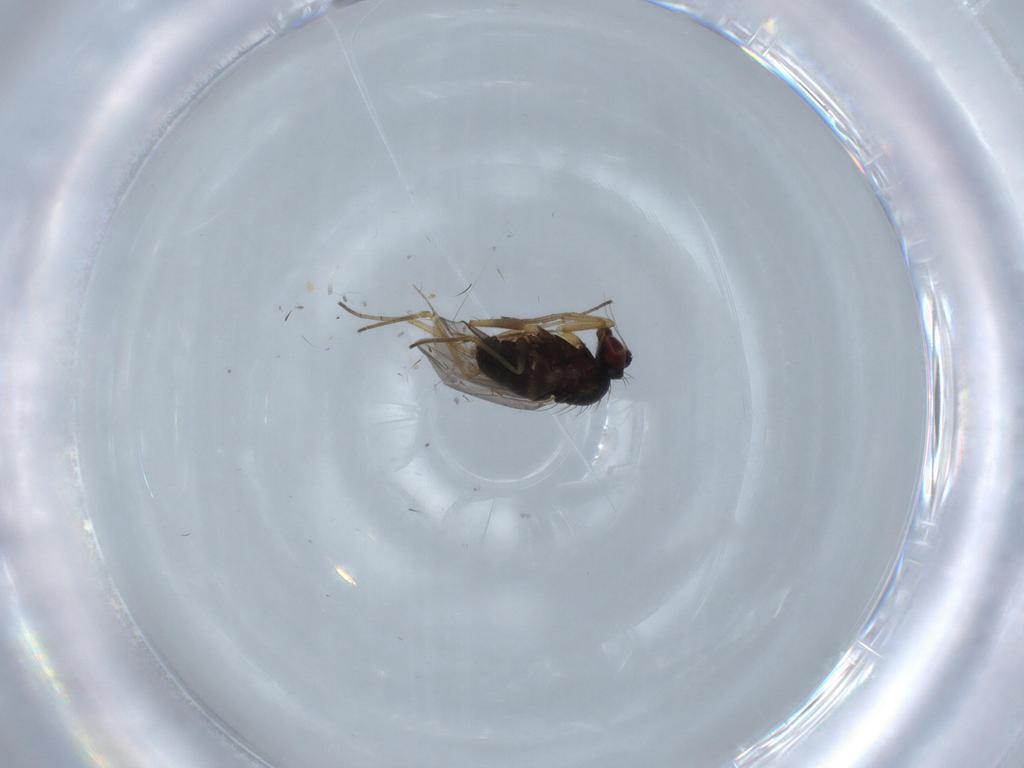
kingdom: Animalia
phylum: Arthropoda
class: Insecta
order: Diptera
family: Dolichopodidae
